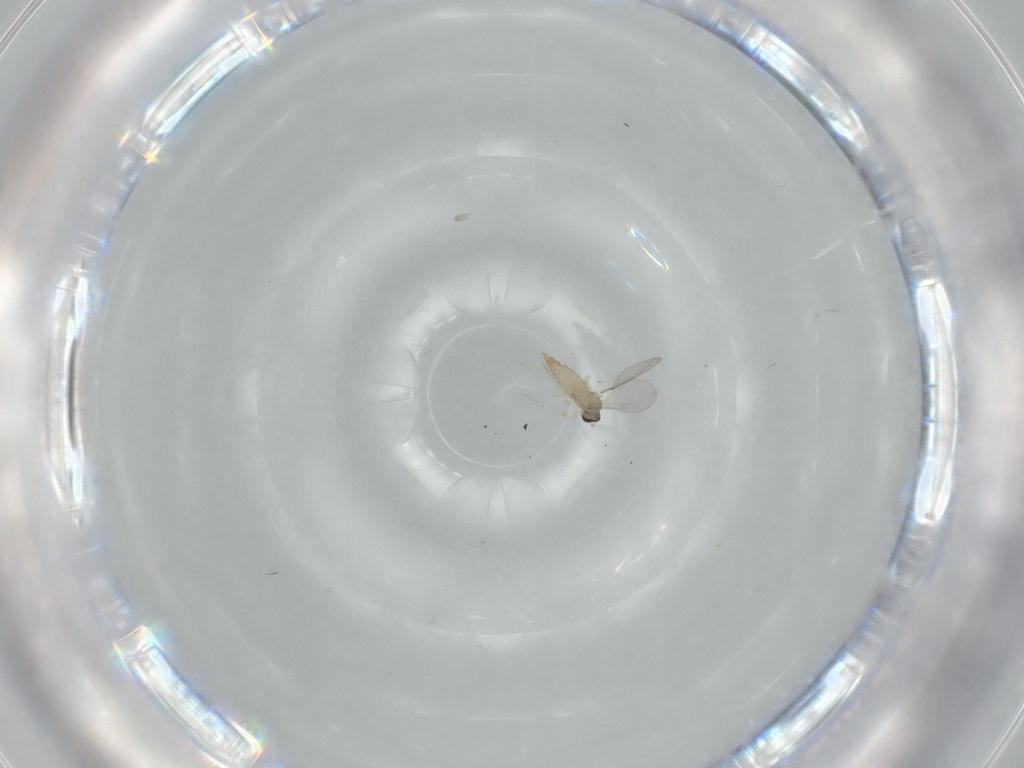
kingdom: Animalia
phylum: Arthropoda
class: Insecta
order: Diptera
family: Cecidomyiidae
